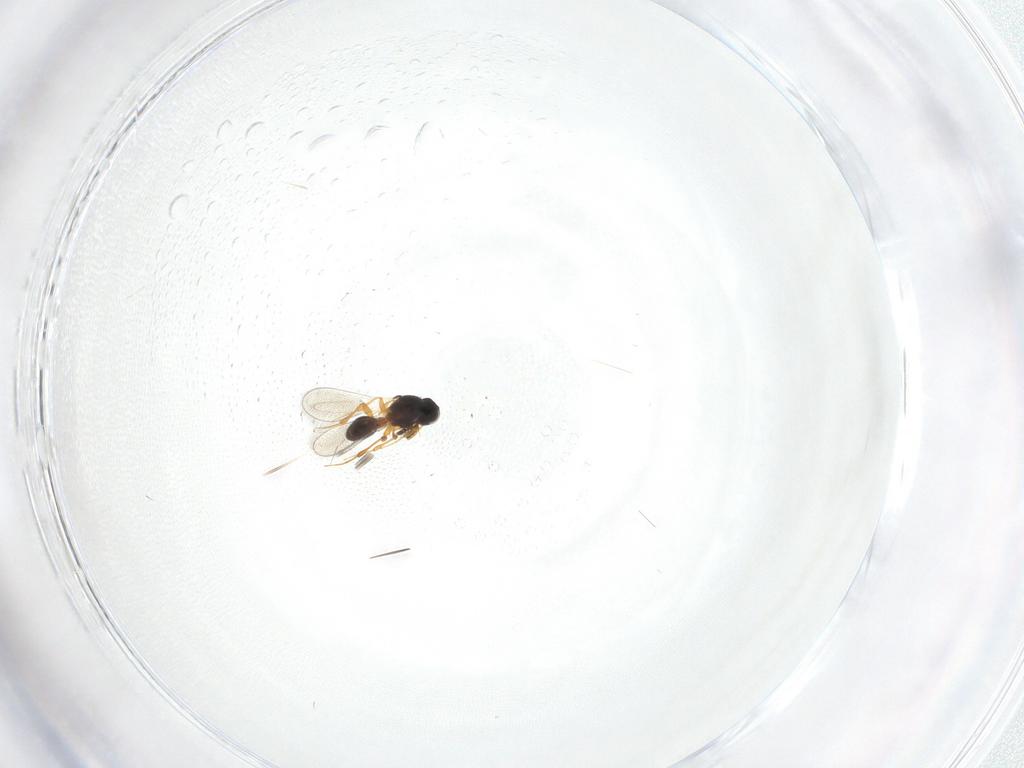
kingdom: Animalia
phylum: Arthropoda
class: Insecta
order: Hymenoptera
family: Platygastridae
